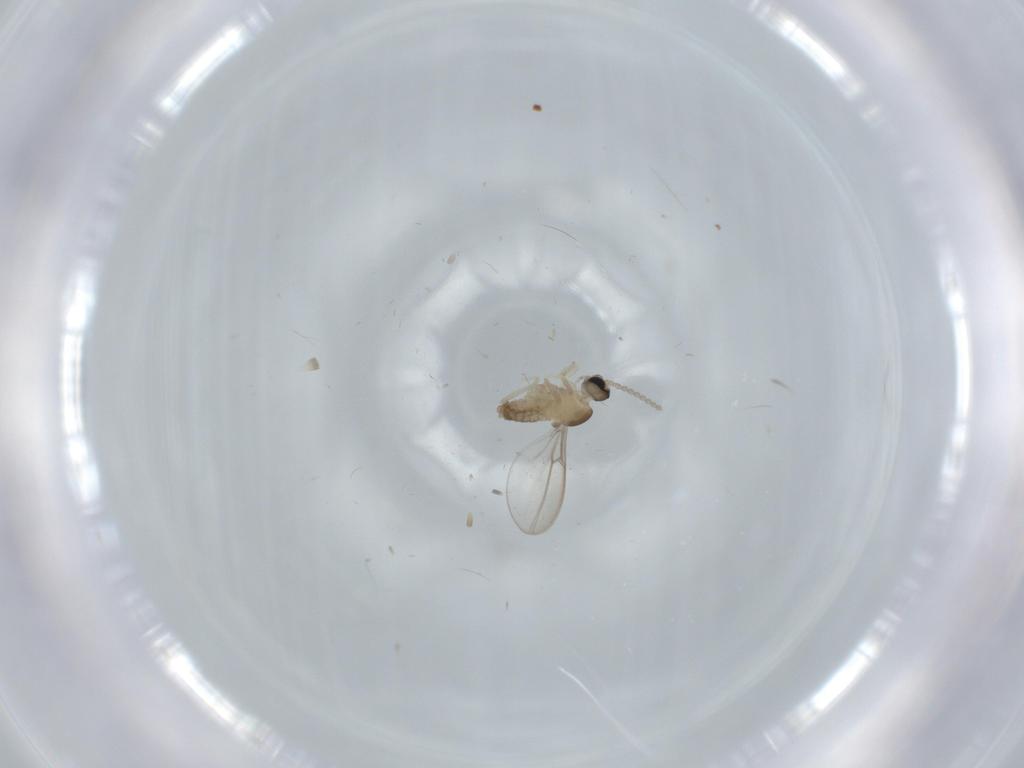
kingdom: Animalia
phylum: Arthropoda
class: Insecta
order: Diptera
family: Cecidomyiidae
